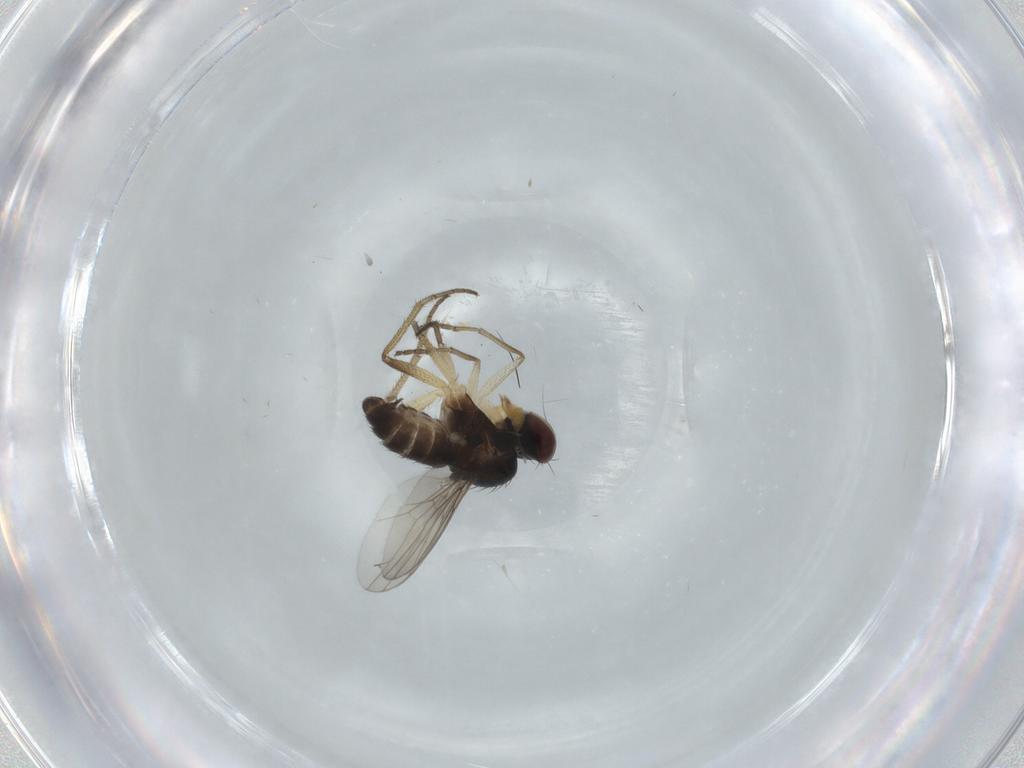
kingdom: Animalia
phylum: Arthropoda
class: Insecta
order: Diptera
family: Dolichopodidae
